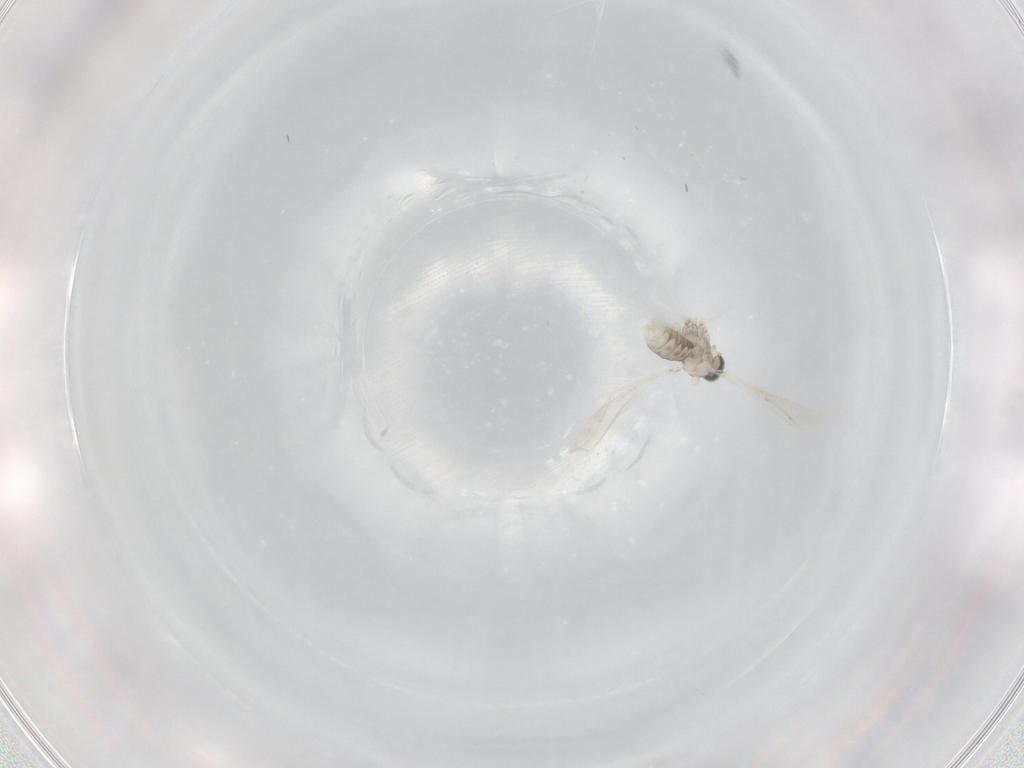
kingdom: Animalia
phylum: Arthropoda
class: Insecta
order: Diptera
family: Cecidomyiidae
